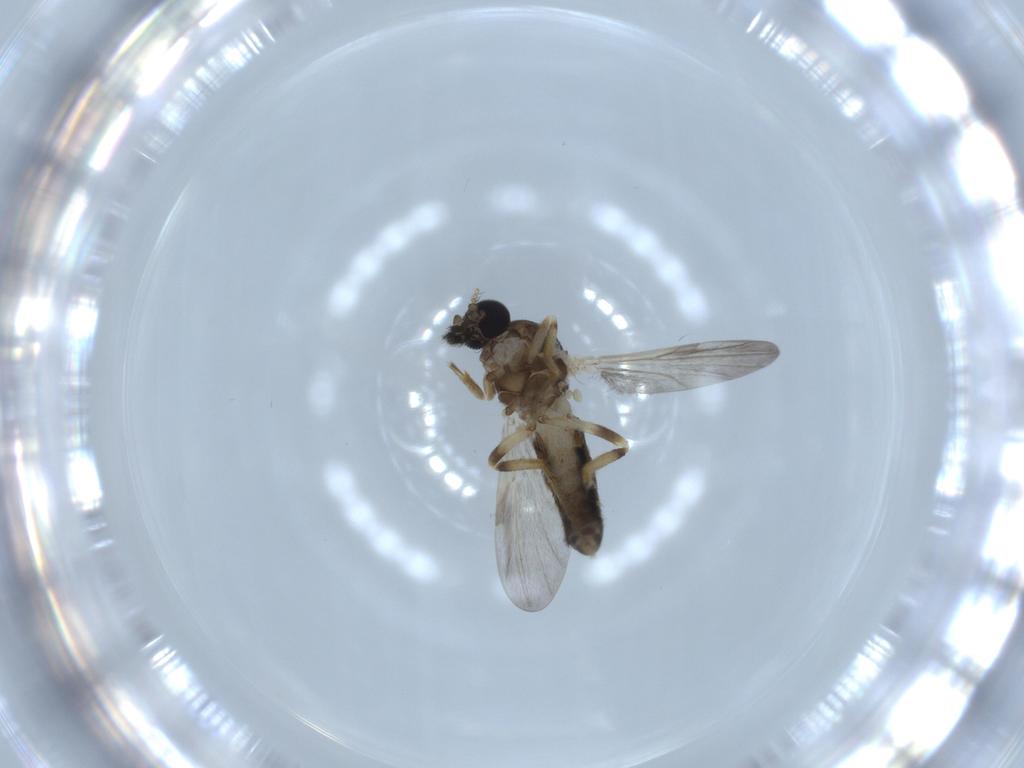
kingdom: Animalia
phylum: Arthropoda
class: Insecta
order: Diptera
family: Ceratopogonidae
